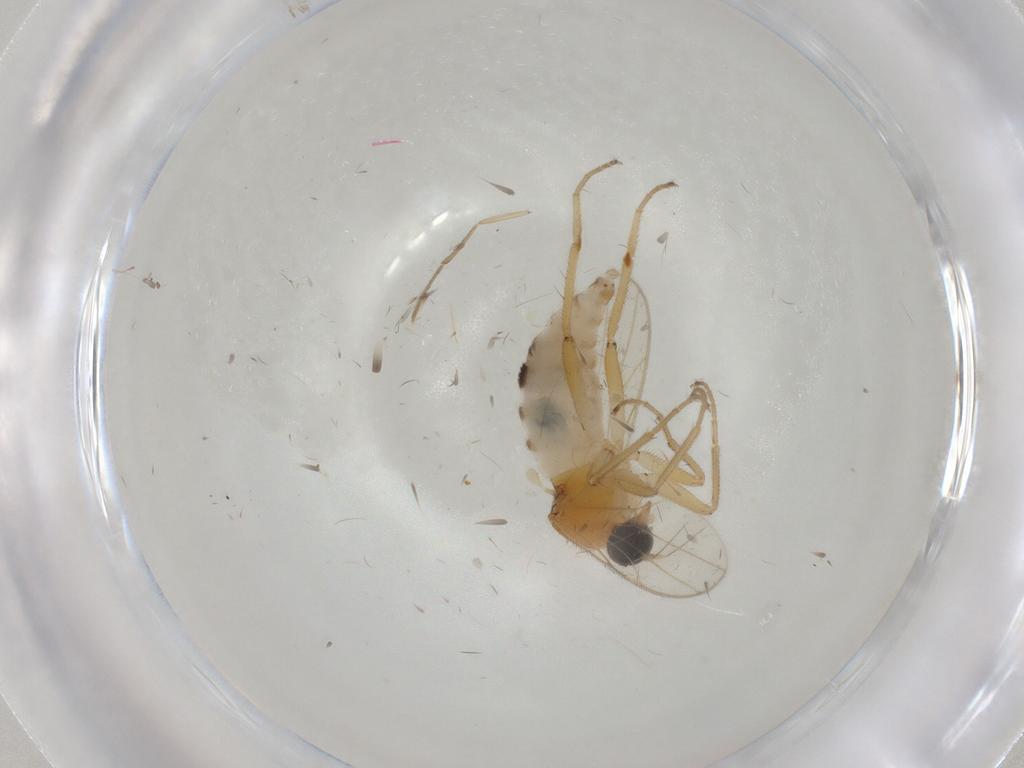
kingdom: Animalia
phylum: Arthropoda
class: Insecta
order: Diptera
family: Hybotidae
